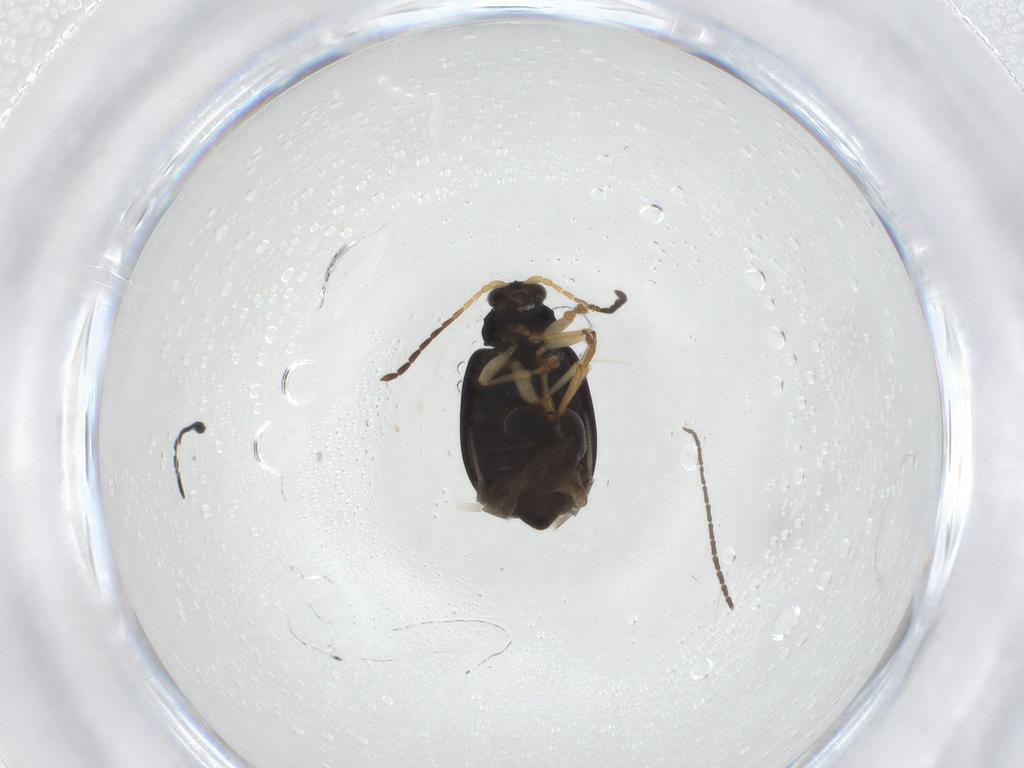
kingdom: Animalia
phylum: Arthropoda
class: Insecta
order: Coleoptera
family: Chrysomelidae
